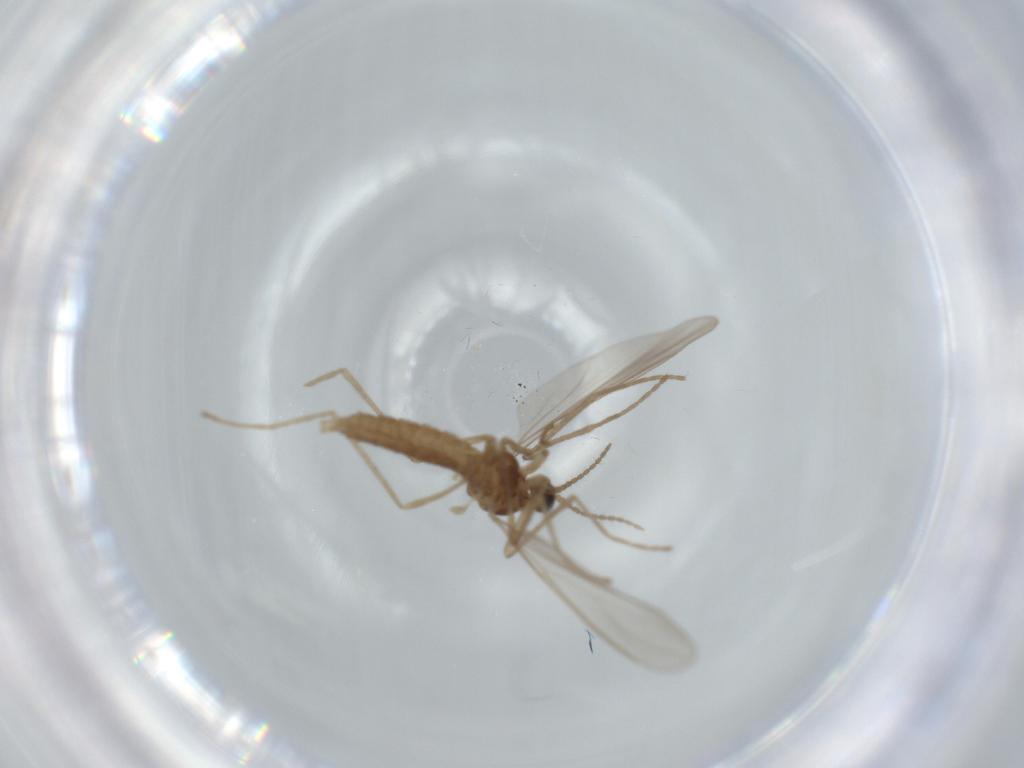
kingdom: Animalia
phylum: Arthropoda
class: Insecta
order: Diptera
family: Cecidomyiidae
